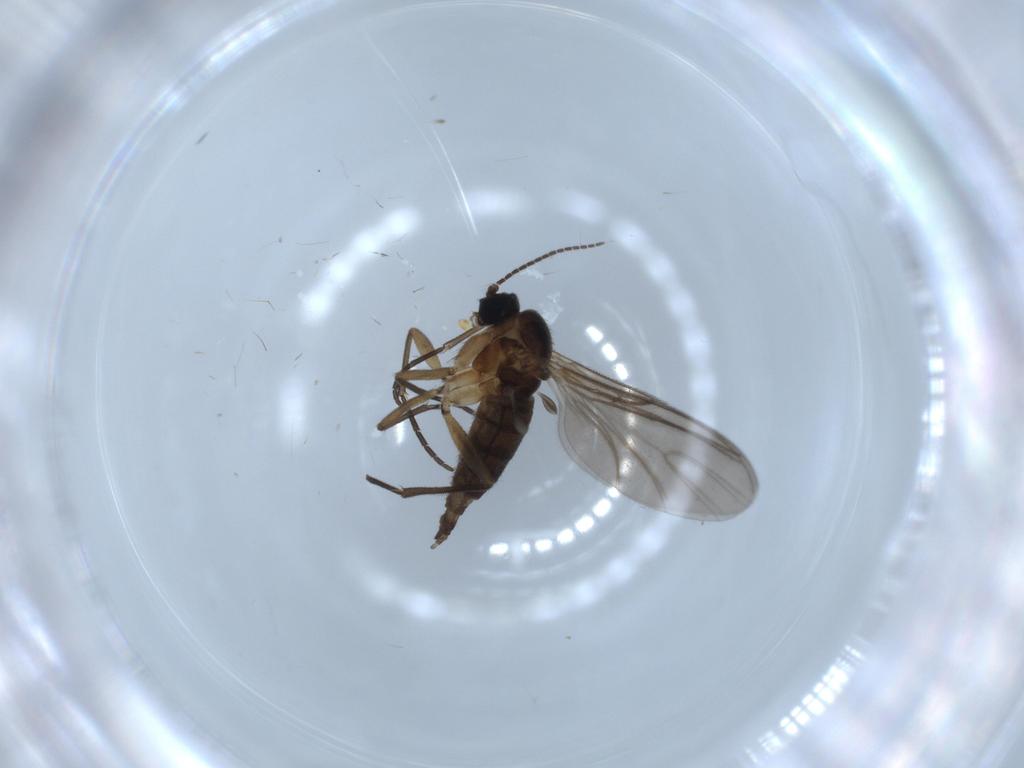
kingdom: Animalia
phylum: Arthropoda
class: Insecta
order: Diptera
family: Sciaridae
